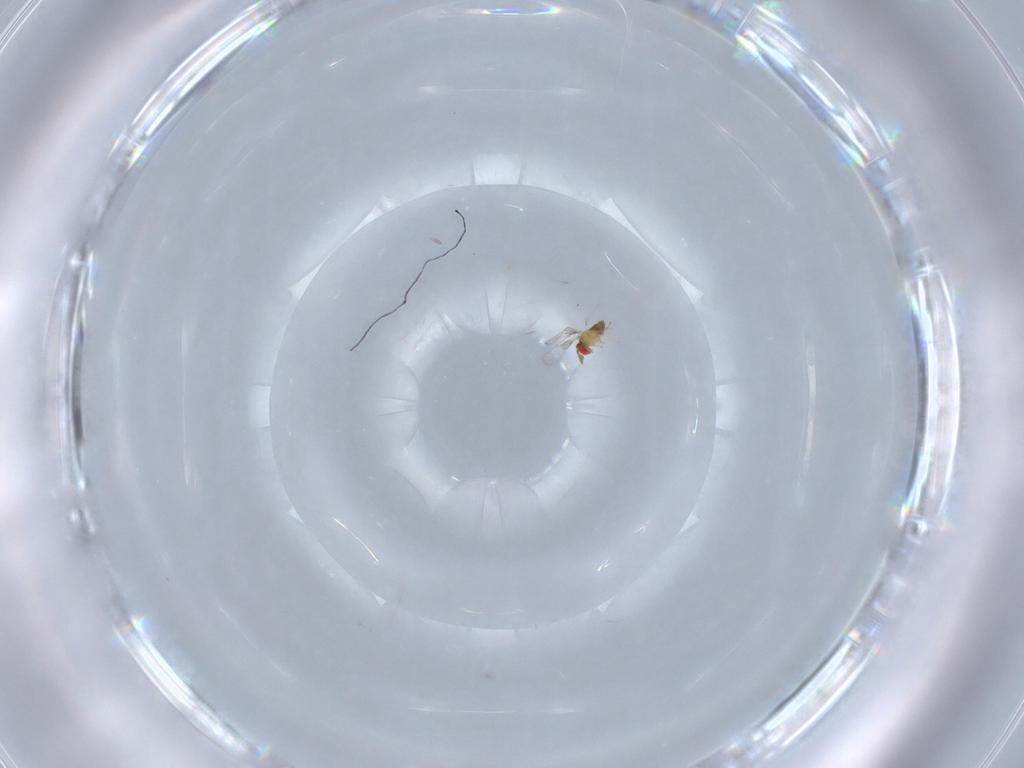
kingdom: Animalia
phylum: Arthropoda
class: Insecta
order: Hymenoptera
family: Trichogrammatidae
